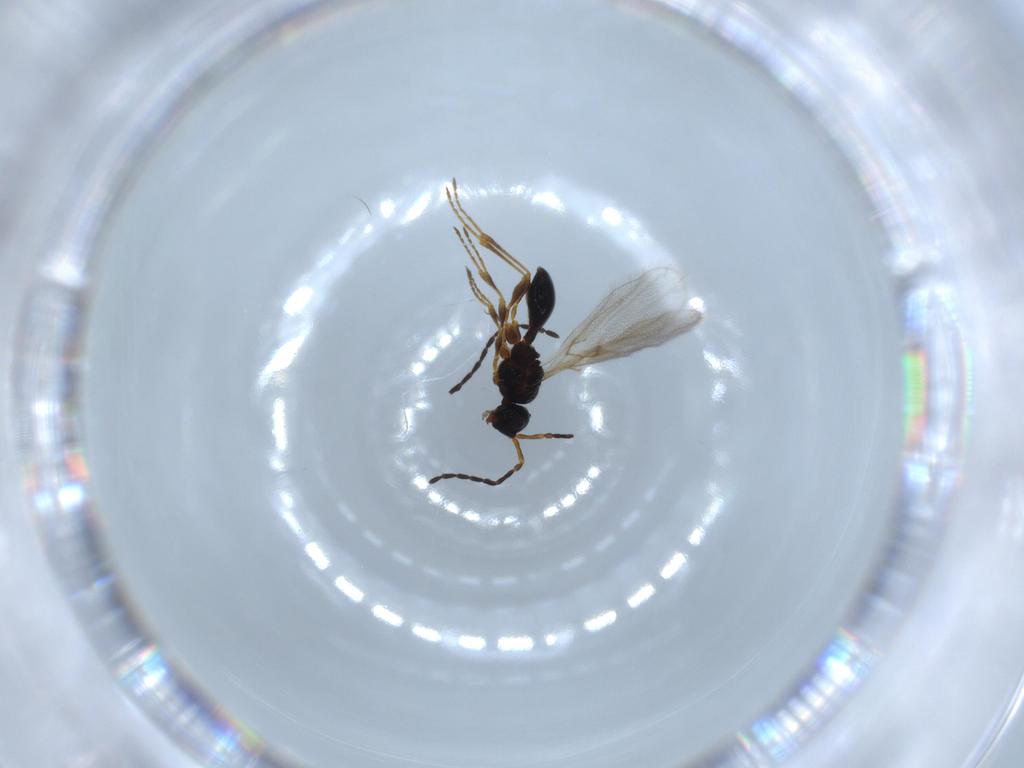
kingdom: Animalia
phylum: Arthropoda
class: Insecta
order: Hymenoptera
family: Diapriidae
